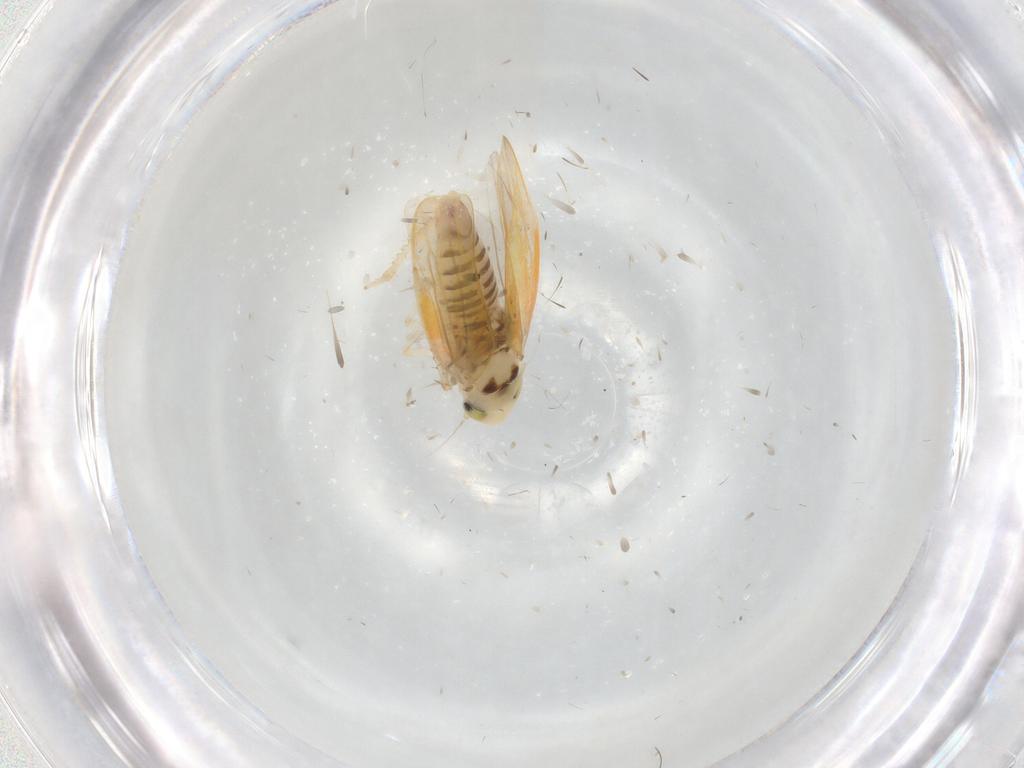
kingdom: Animalia
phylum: Arthropoda
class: Insecta
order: Hemiptera
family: Cicadellidae
